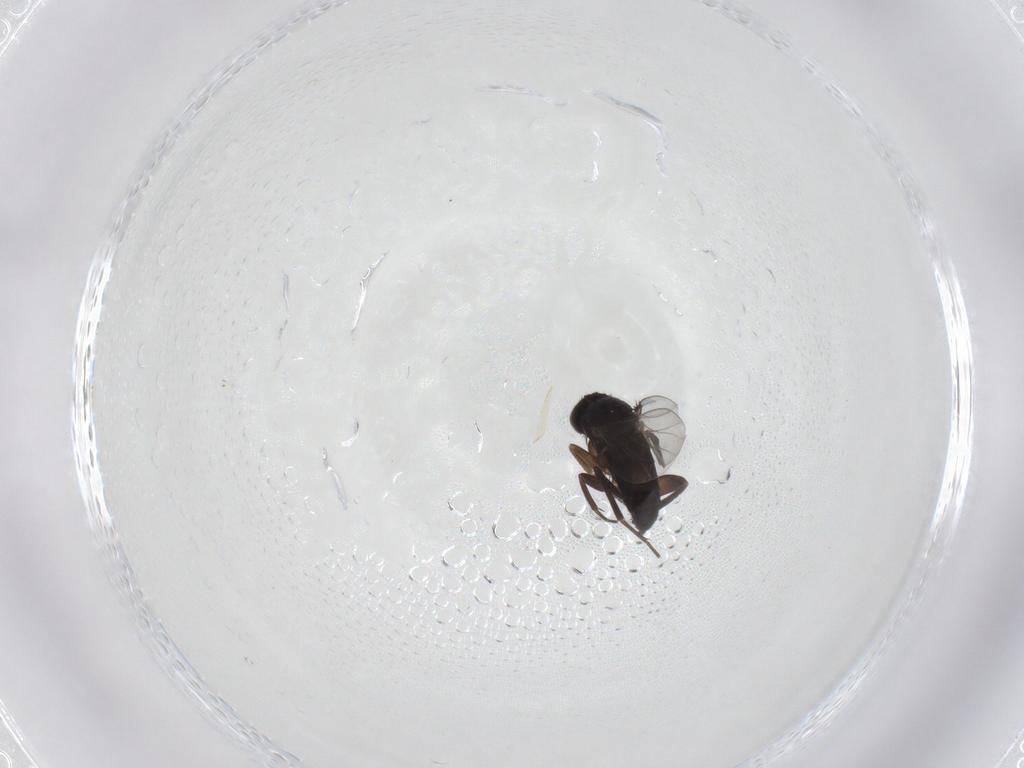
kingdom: Animalia
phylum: Arthropoda
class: Insecta
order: Diptera
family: Phoridae
